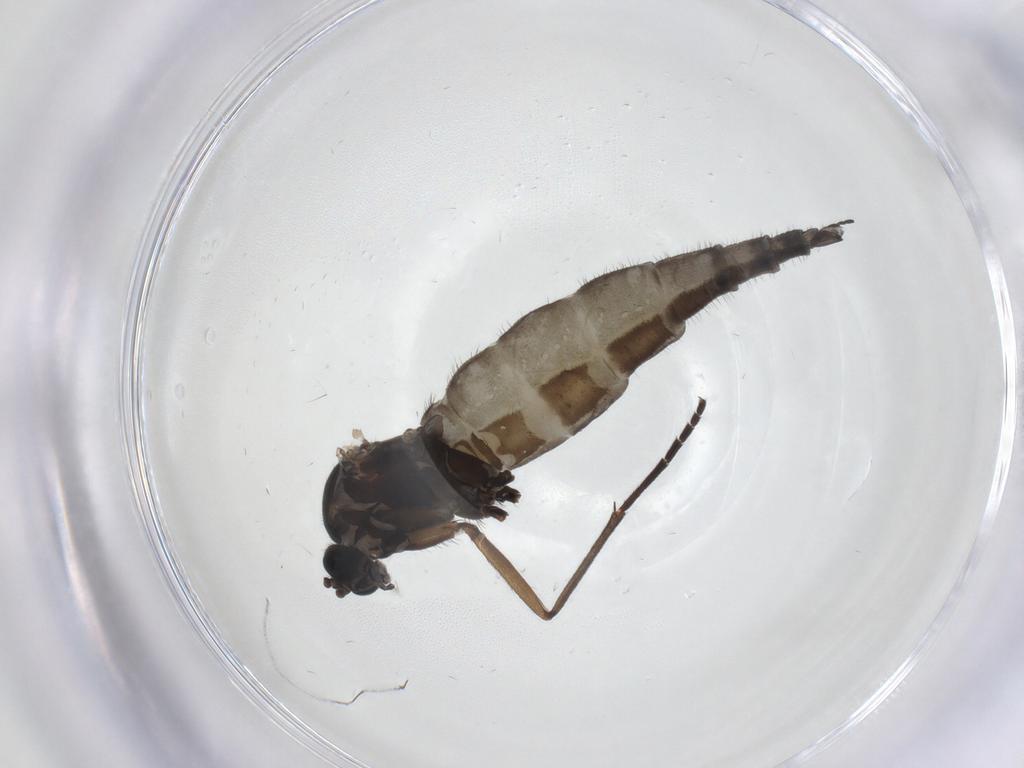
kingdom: Animalia
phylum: Arthropoda
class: Insecta
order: Diptera
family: Sciaridae
